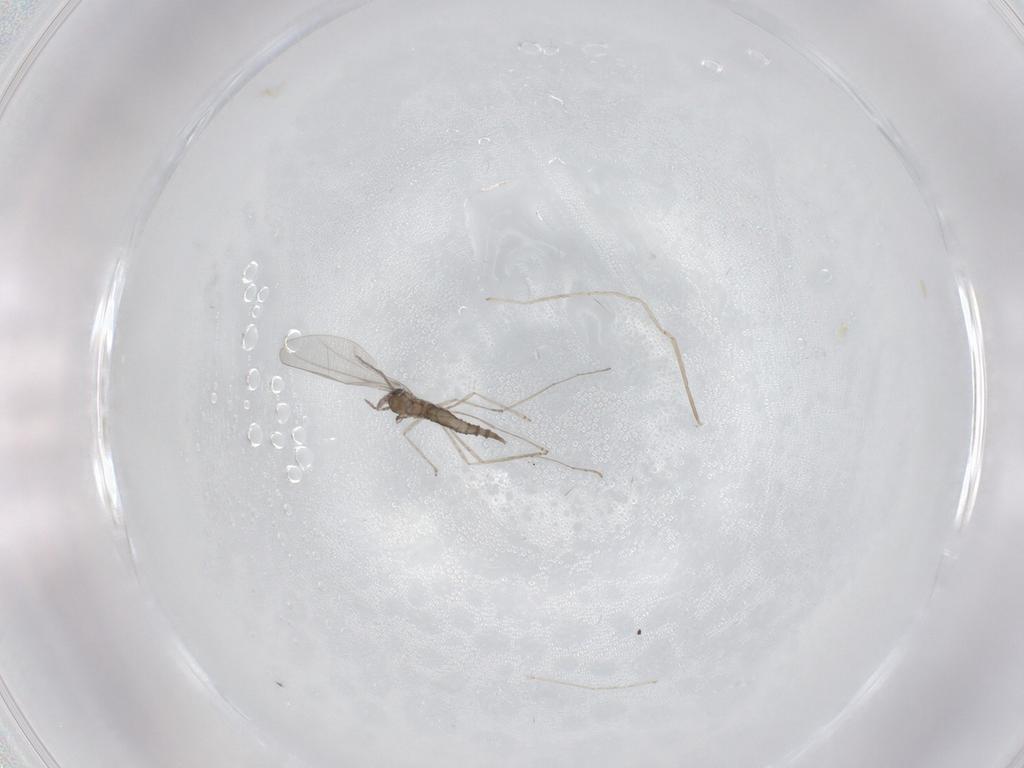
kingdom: Animalia
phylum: Arthropoda
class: Insecta
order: Diptera
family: Cecidomyiidae
